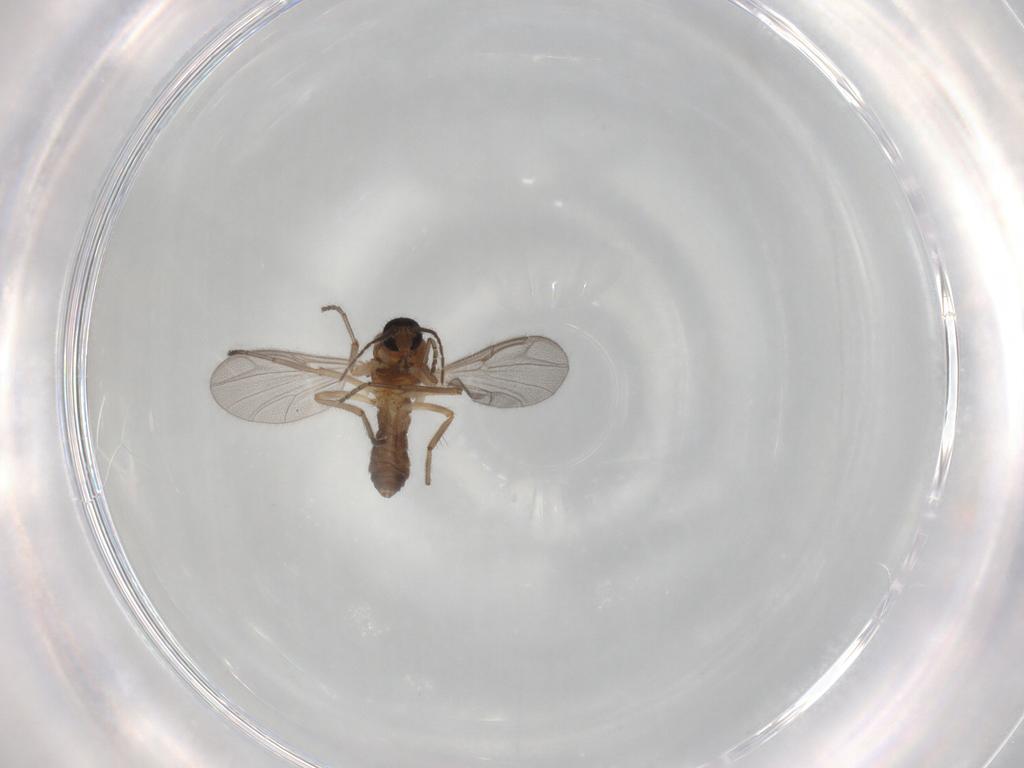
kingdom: Animalia
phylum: Arthropoda
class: Insecta
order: Diptera
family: Ceratopogonidae
